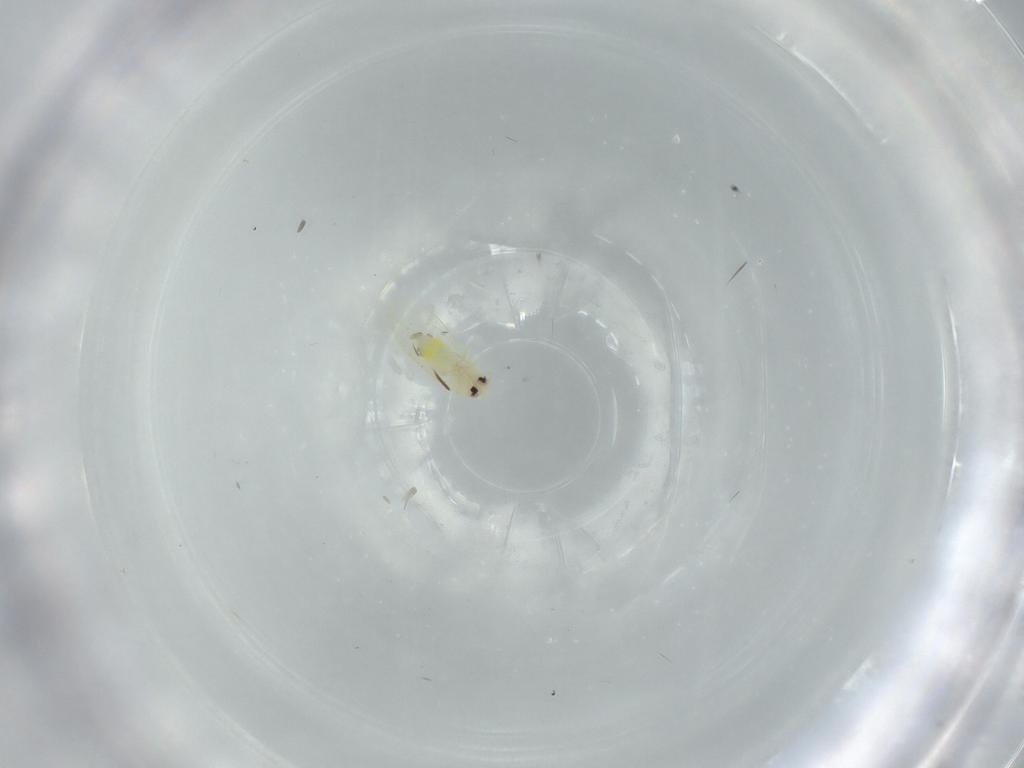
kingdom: Animalia
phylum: Arthropoda
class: Insecta
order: Hemiptera
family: Aleyrodidae
